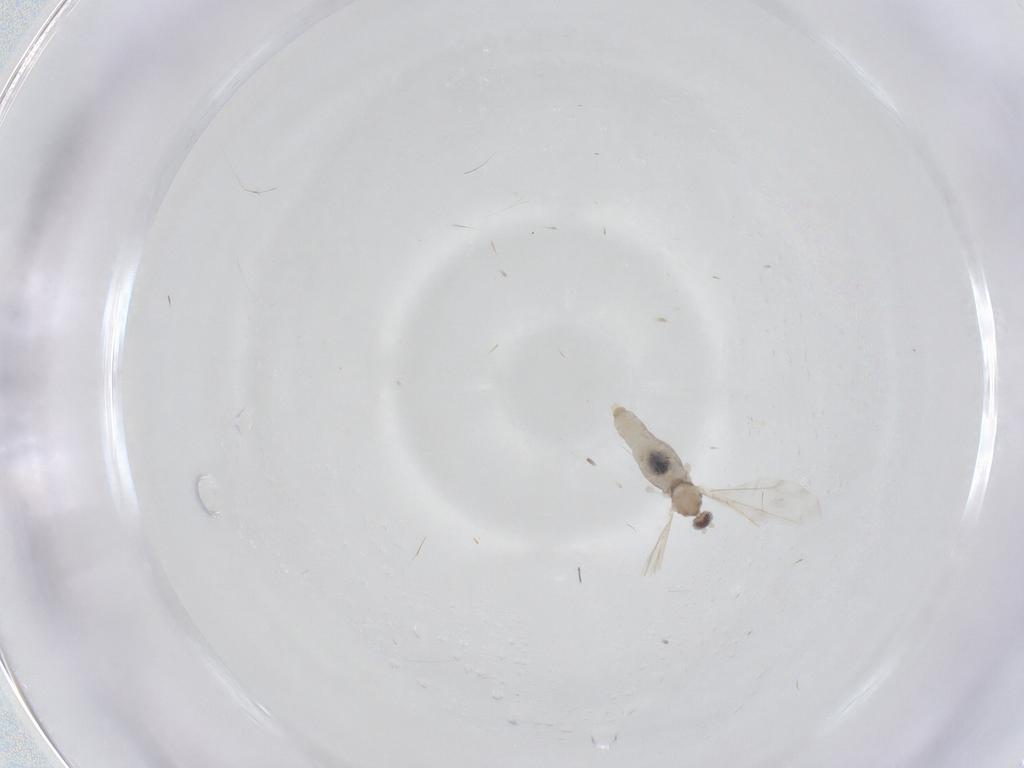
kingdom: Animalia
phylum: Arthropoda
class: Insecta
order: Diptera
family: Cecidomyiidae
